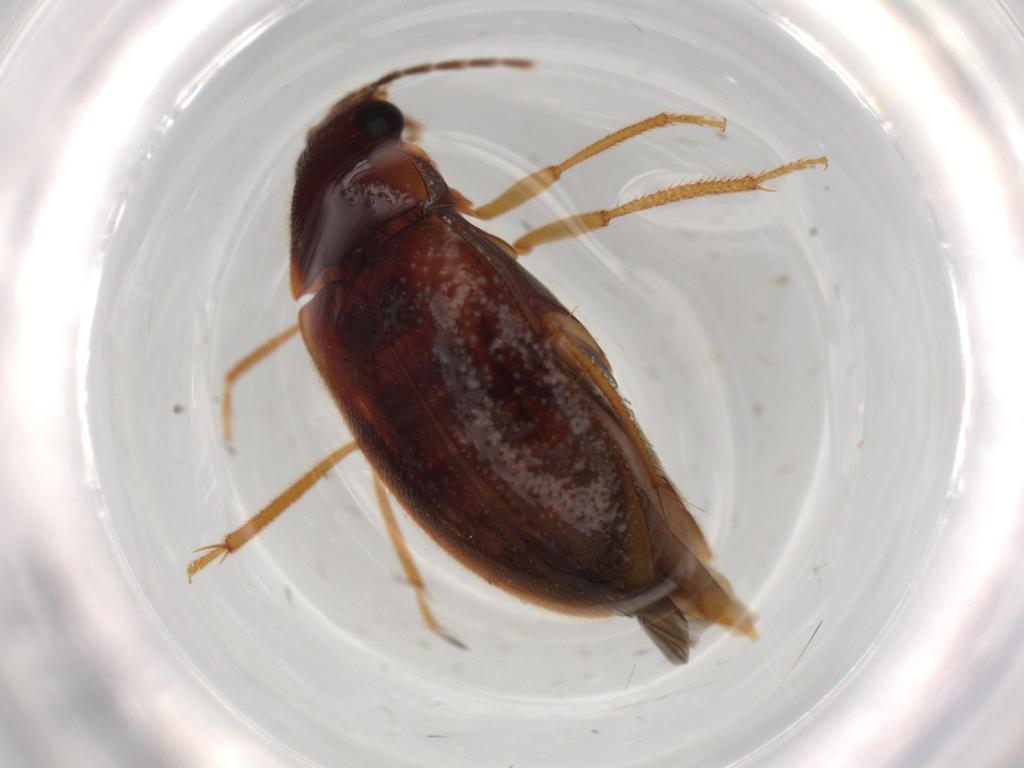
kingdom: Animalia
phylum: Arthropoda
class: Insecta
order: Coleoptera
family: Ptilodactylidae
